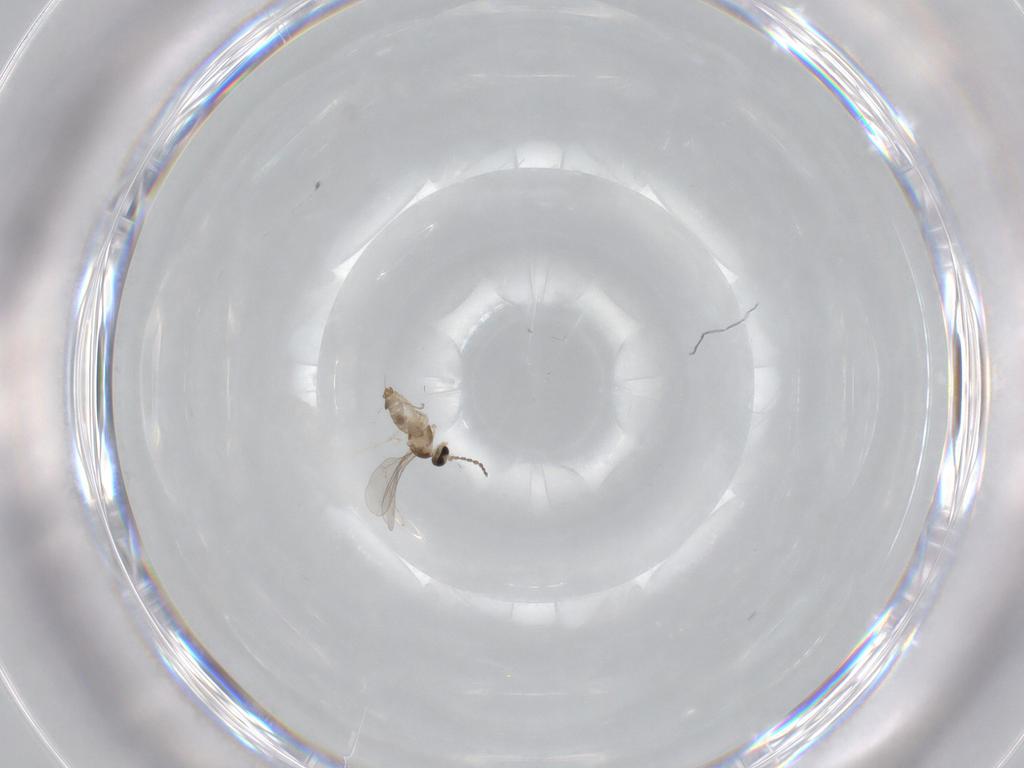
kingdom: Animalia
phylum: Arthropoda
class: Insecta
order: Diptera
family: Cecidomyiidae
